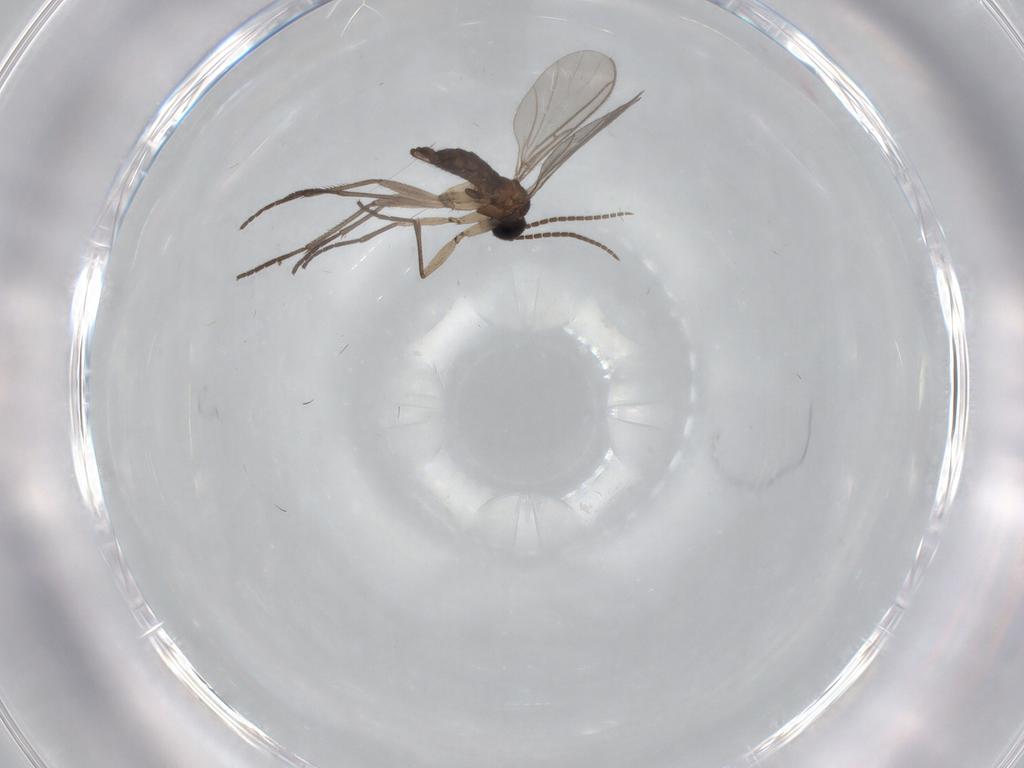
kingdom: Animalia
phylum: Arthropoda
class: Insecta
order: Diptera
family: Sciaridae
